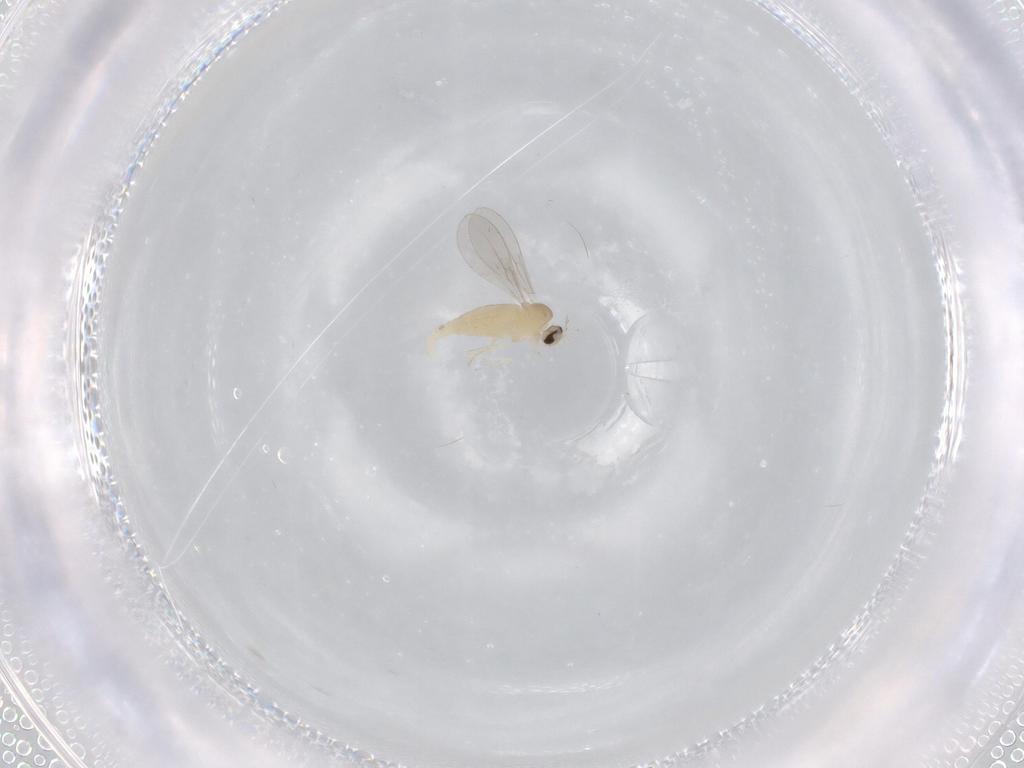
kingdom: Animalia
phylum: Arthropoda
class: Insecta
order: Diptera
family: Cecidomyiidae
